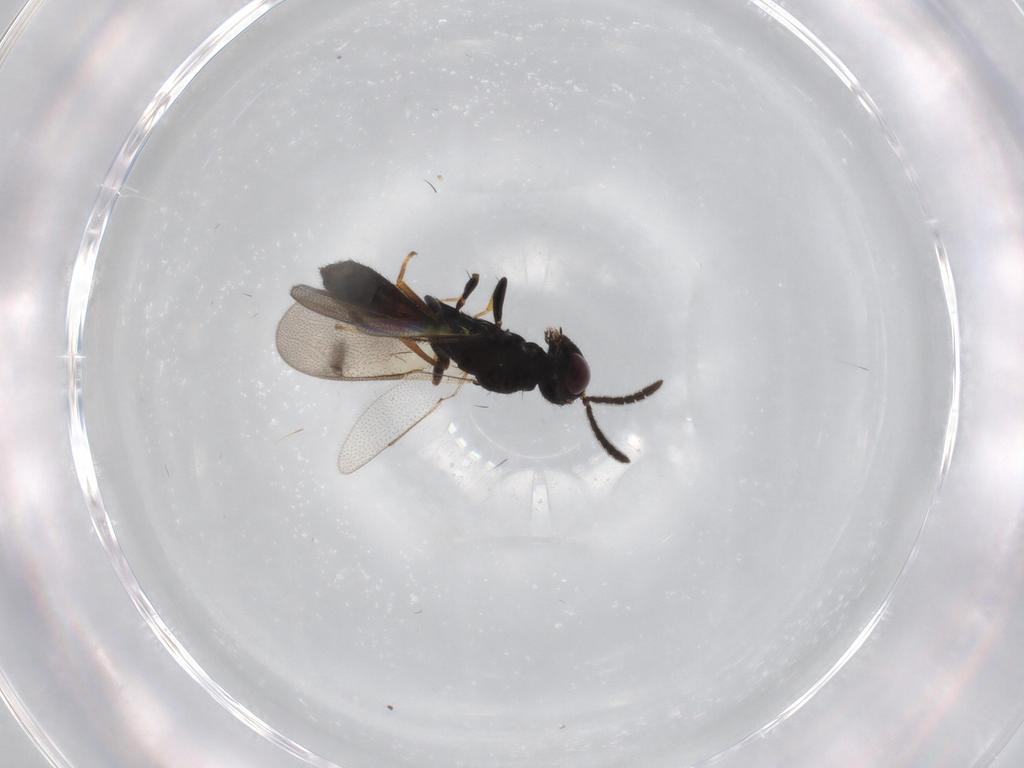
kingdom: Animalia
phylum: Arthropoda
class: Insecta
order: Hymenoptera
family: Pteromalidae
